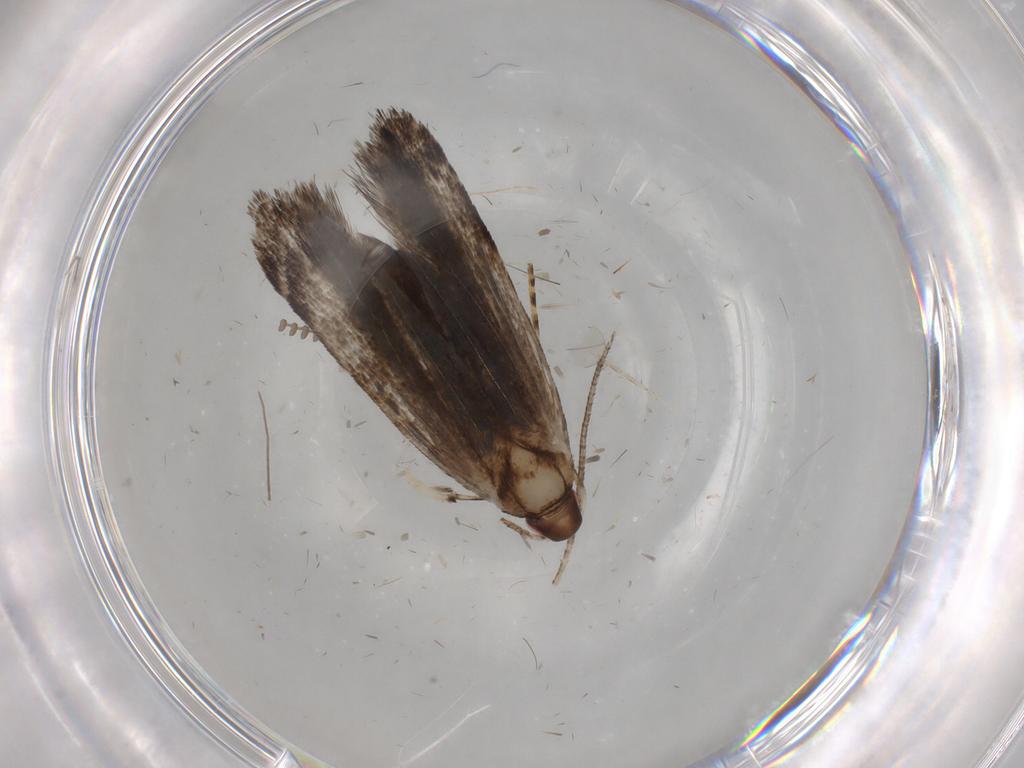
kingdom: Animalia
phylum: Arthropoda
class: Insecta
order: Lepidoptera
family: Gelechiidae
